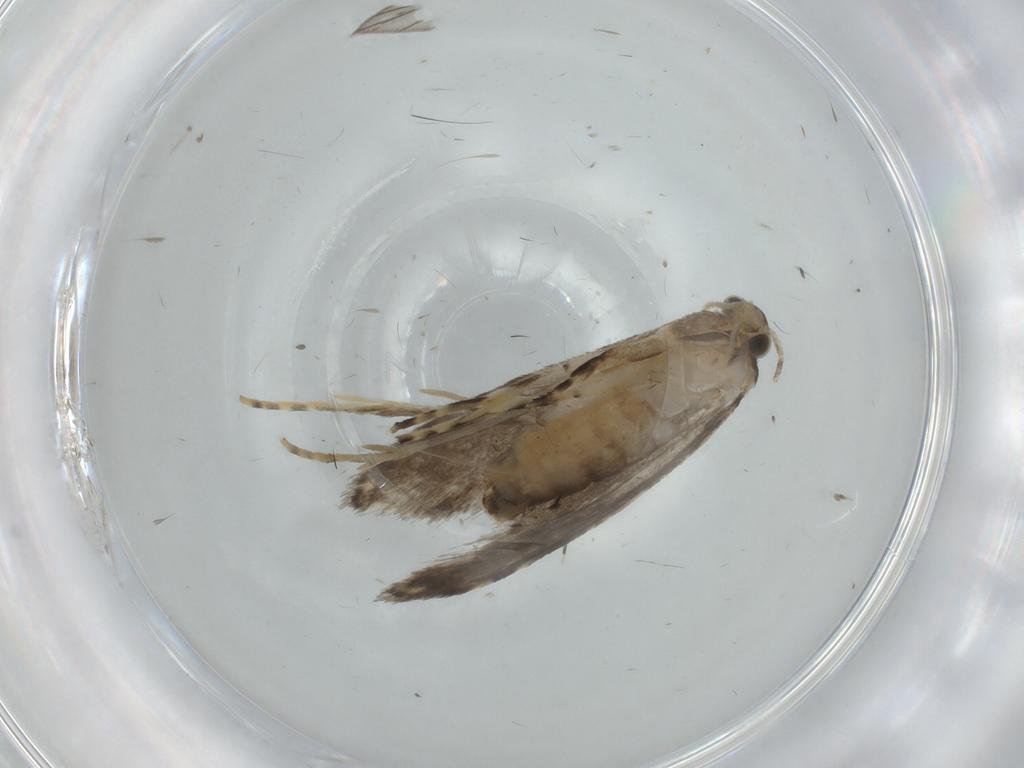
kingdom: Animalia
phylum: Arthropoda
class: Insecta
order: Lepidoptera
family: Tineidae
